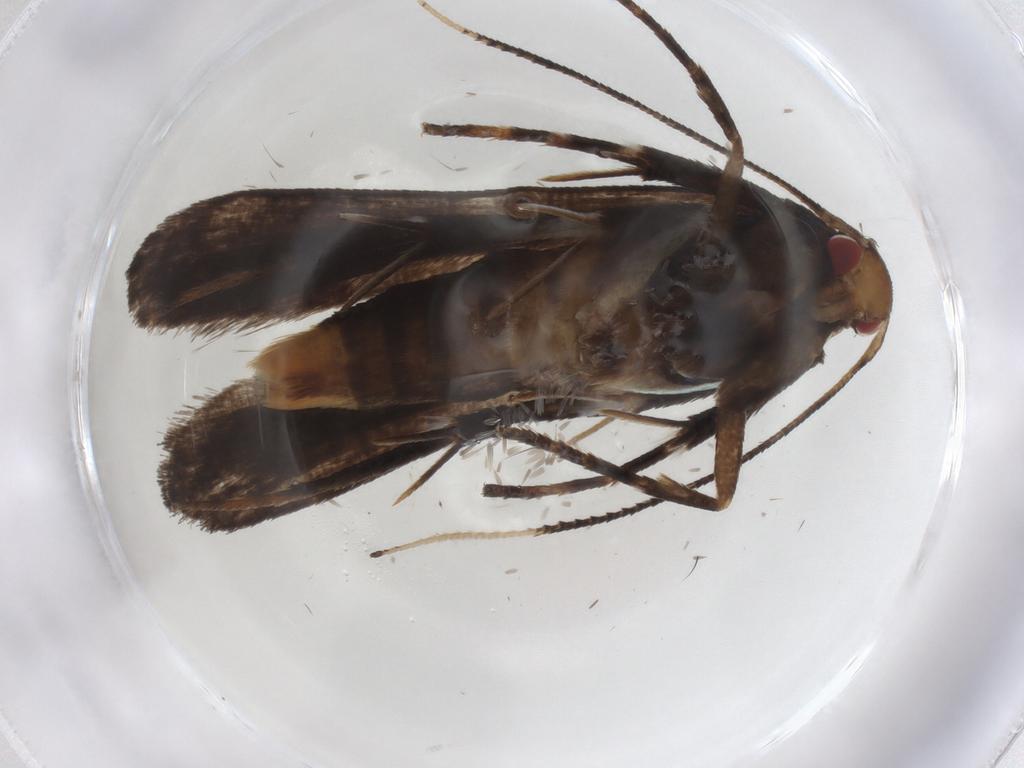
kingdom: Animalia
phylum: Arthropoda
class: Insecta
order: Lepidoptera
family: Gelechiidae
